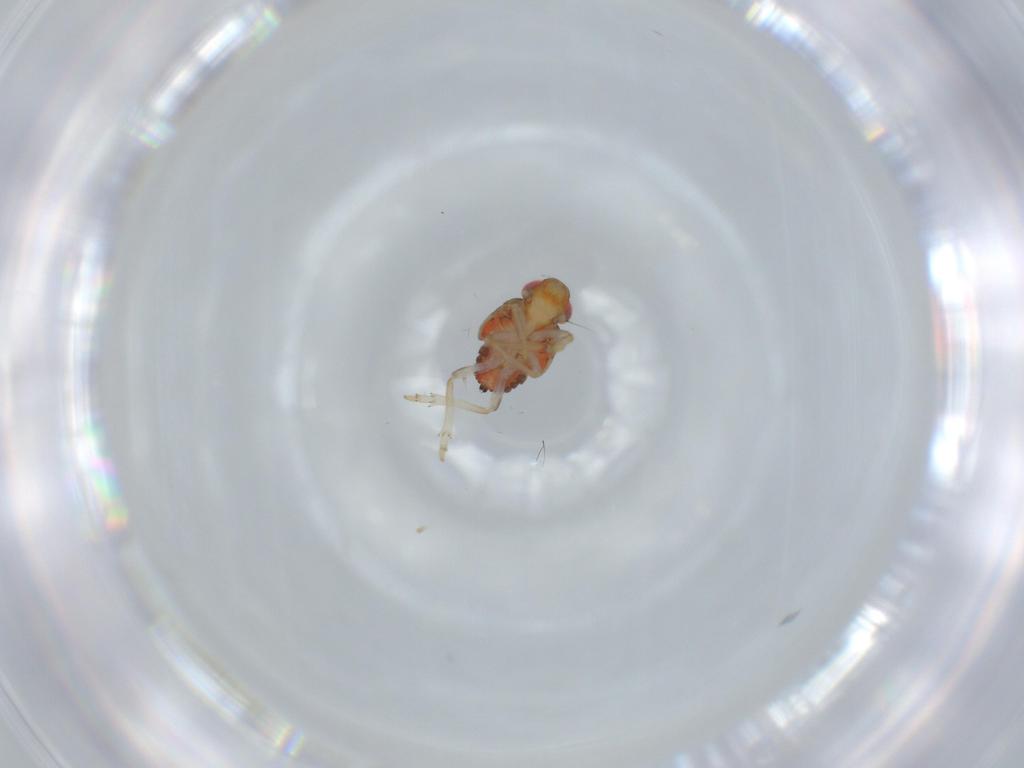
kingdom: Animalia
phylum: Arthropoda
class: Insecta
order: Hemiptera
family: Issidae
